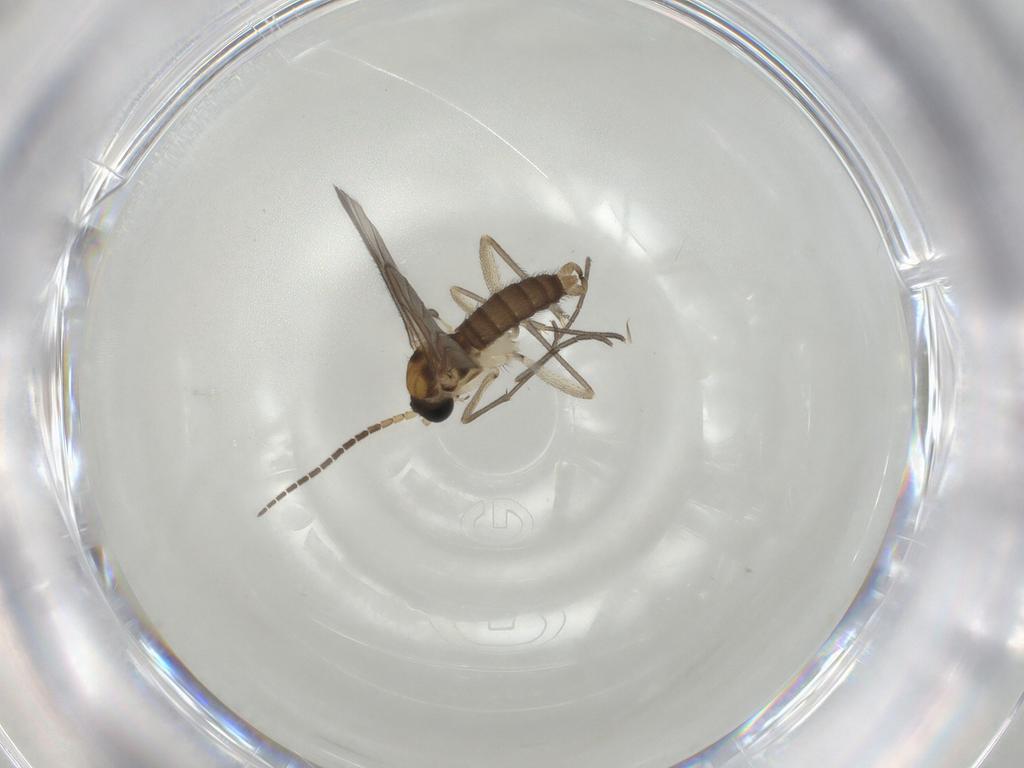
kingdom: Animalia
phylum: Arthropoda
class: Insecta
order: Diptera
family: Sciaridae
